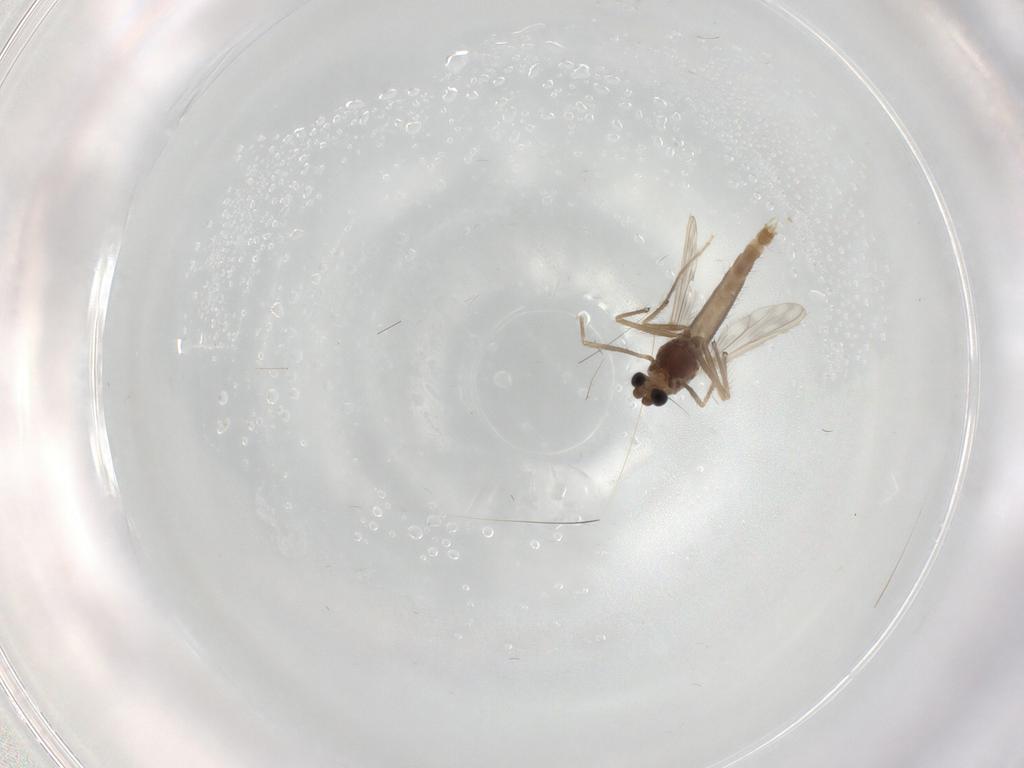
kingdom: Animalia
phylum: Arthropoda
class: Insecta
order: Diptera
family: Chironomidae
